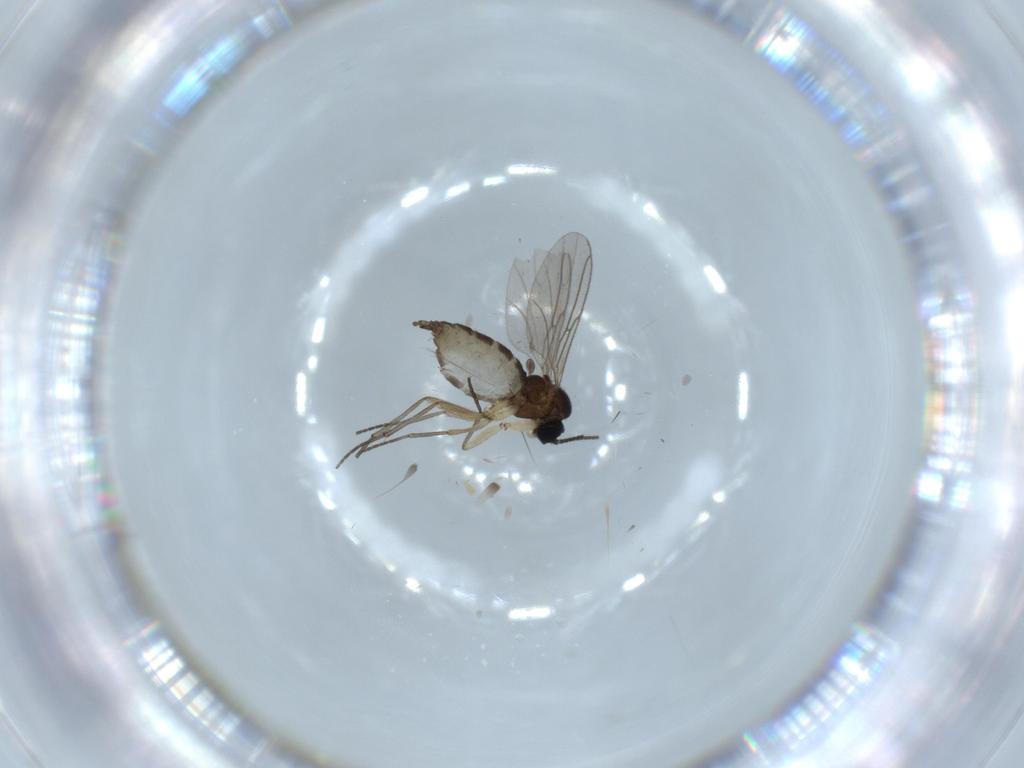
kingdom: Animalia
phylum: Arthropoda
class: Insecta
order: Diptera
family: Sciaridae
